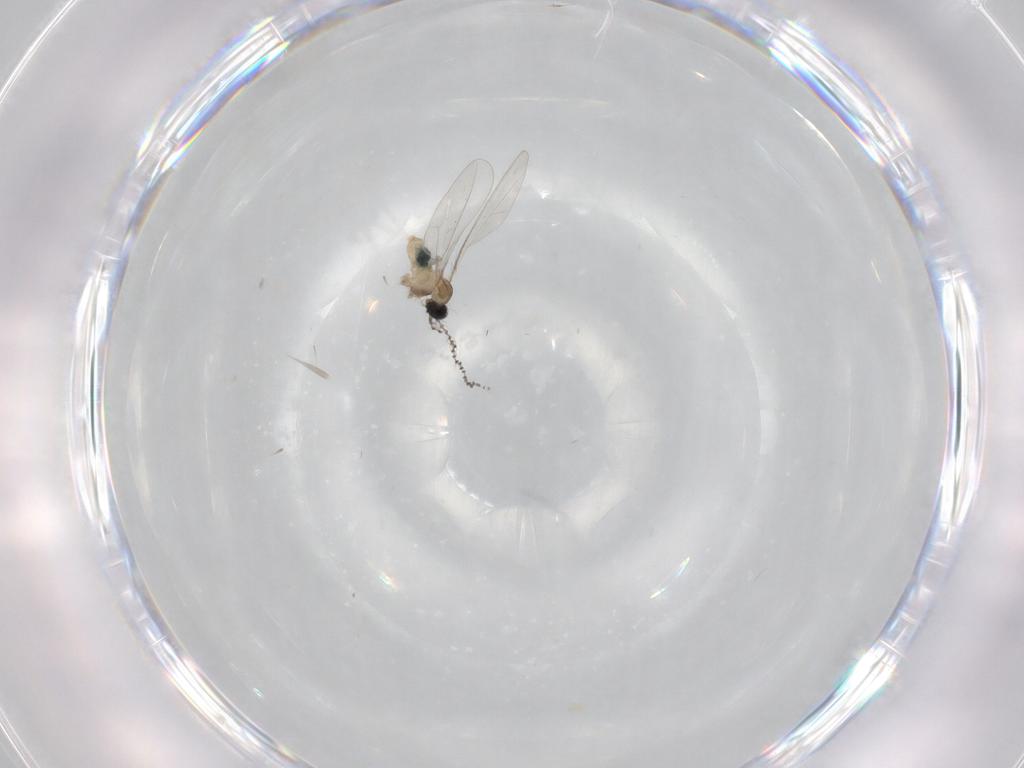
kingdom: Animalia
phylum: Arthropoda
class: Insecta
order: Diptera
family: Cecidomyiidae
